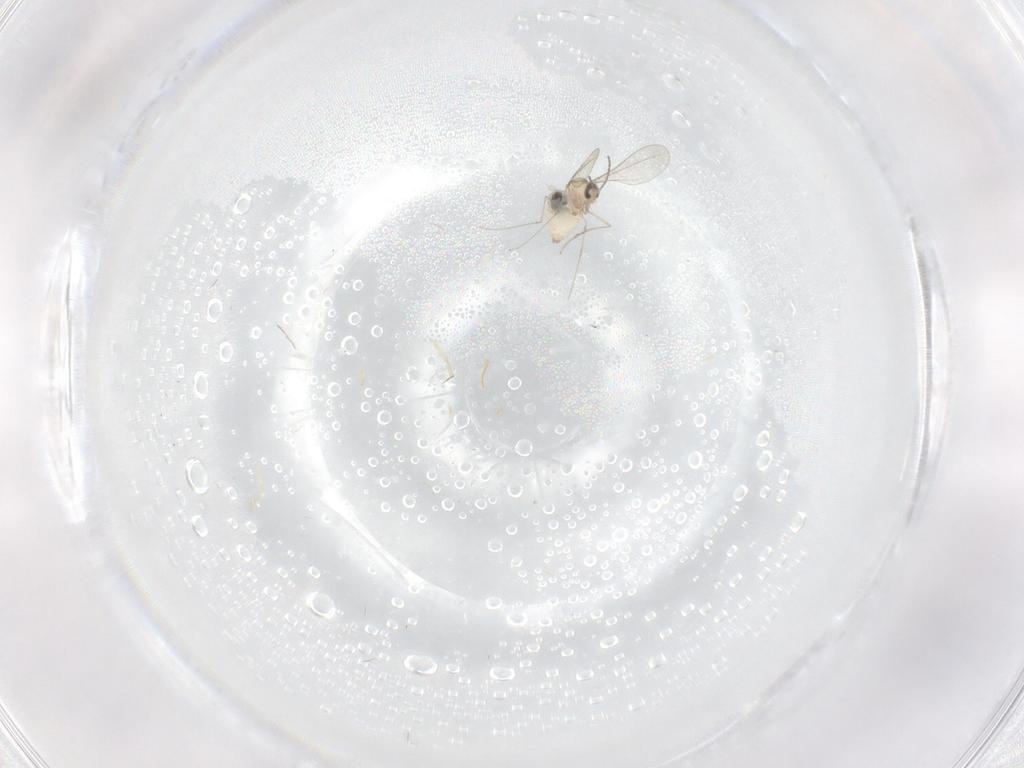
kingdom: Animalia
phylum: Arthropoda
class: Insecta
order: Diptera
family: Cecidomyiidae
